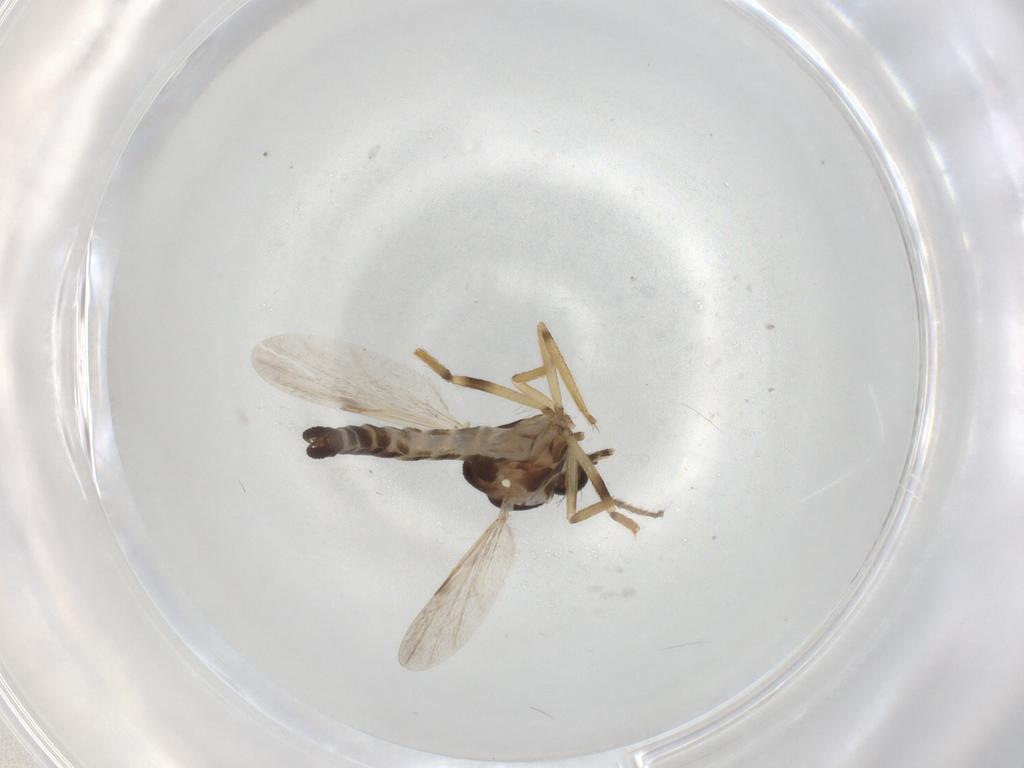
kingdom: Animalia
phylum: Arthropoda
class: Insecta
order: Diptera
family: Ceratopogonidae
